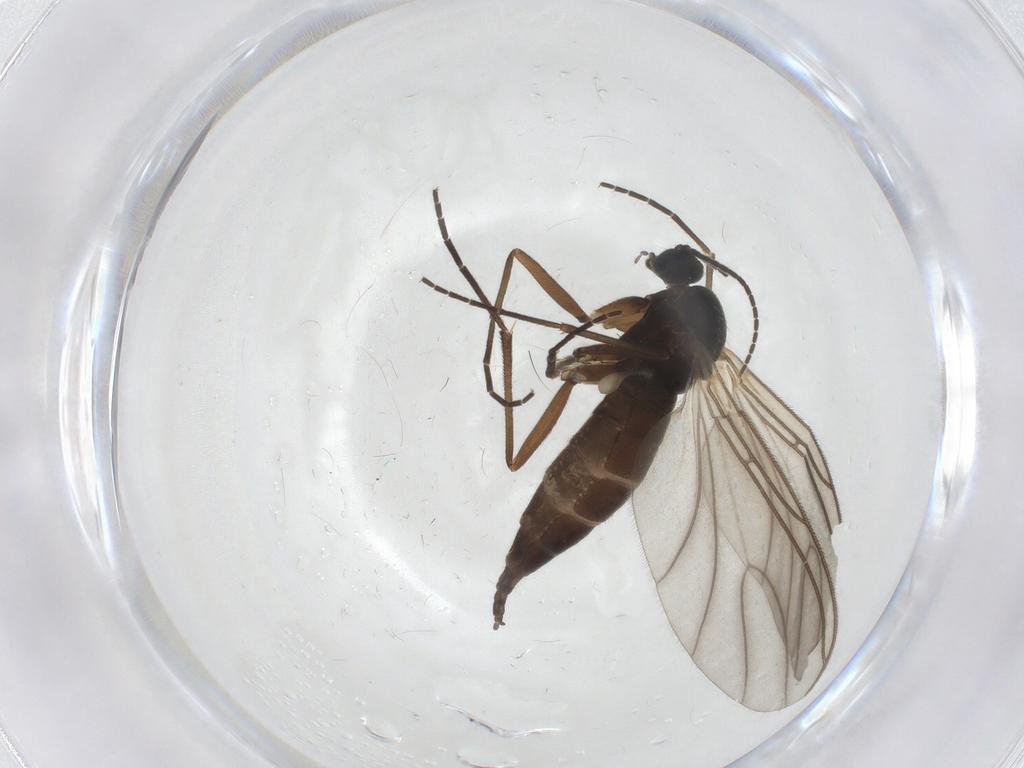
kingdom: Animalia
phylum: Arthropoda
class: Insecta
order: Diptera
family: Sciaridae
